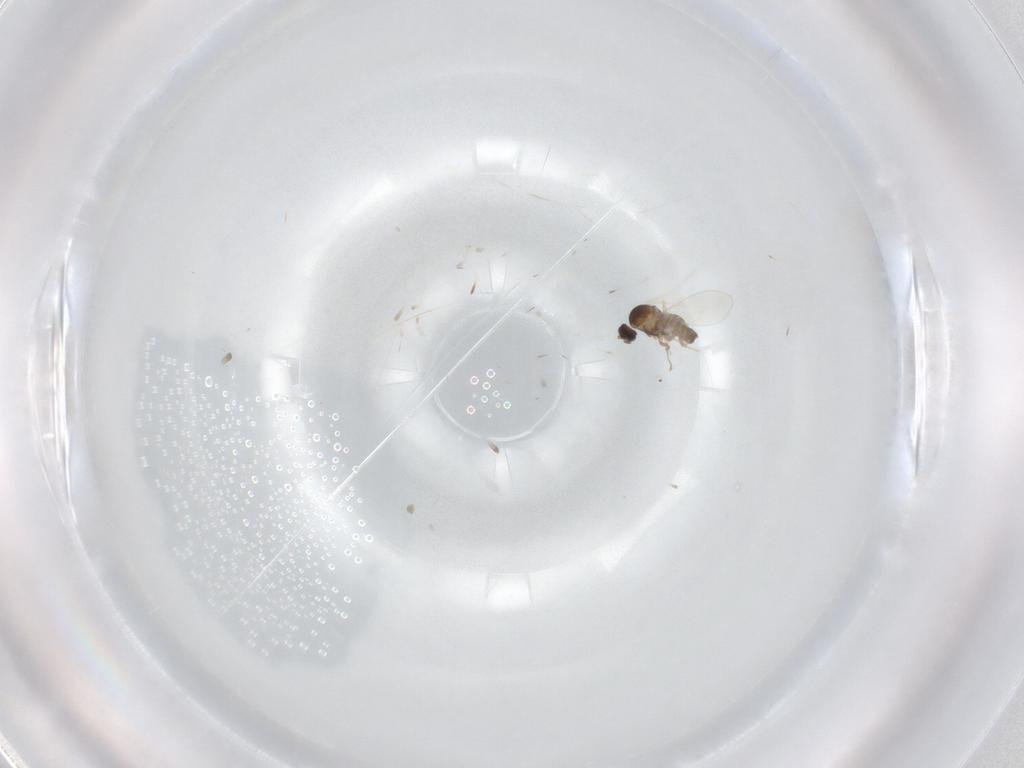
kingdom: Animalia
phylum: Arthropoda
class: Insecta
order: Diptera
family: Cecidomyiidae
